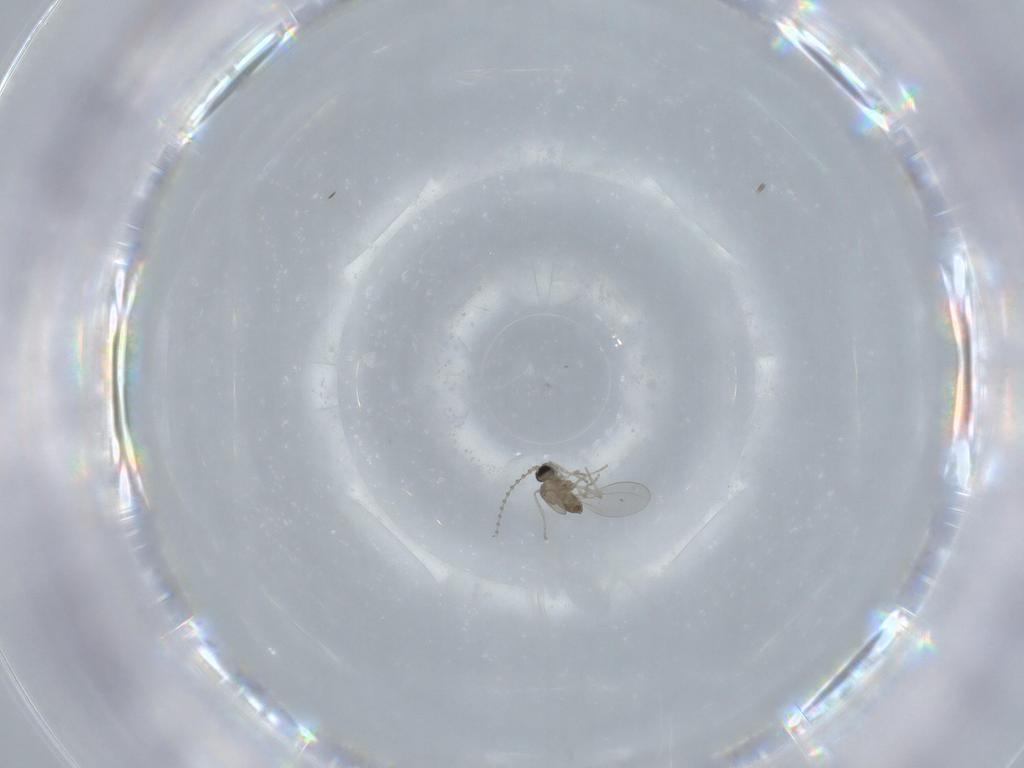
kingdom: Animalia
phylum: Arthropoda
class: Insecta
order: Diptera
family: Cecidomyiidae
